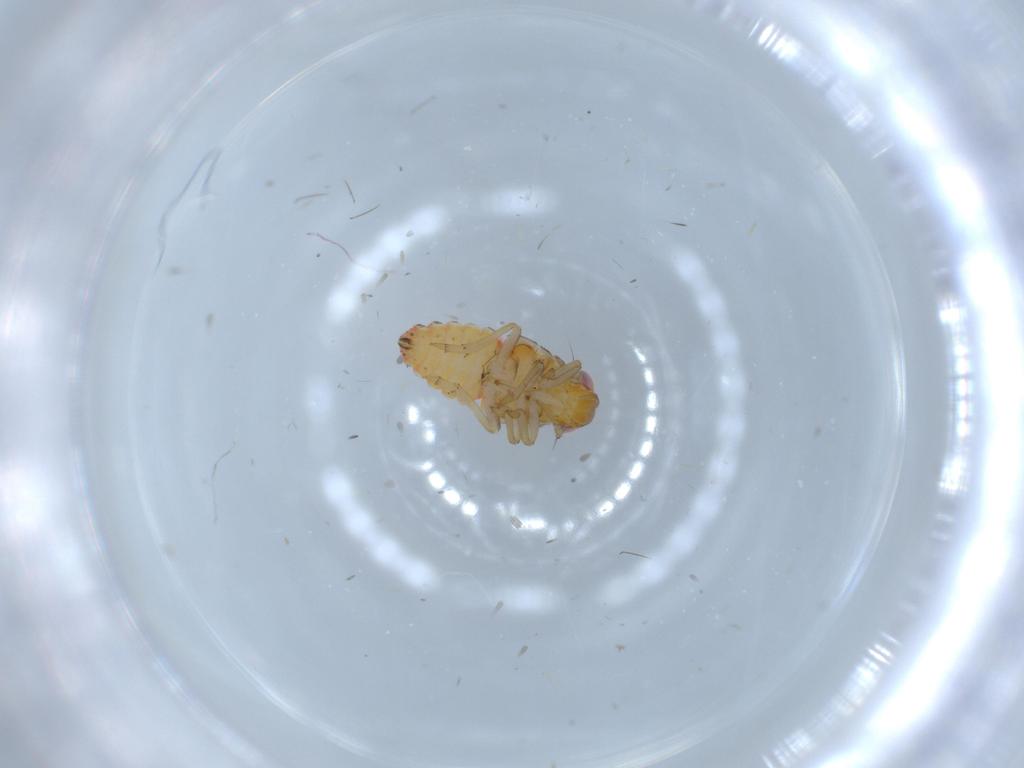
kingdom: Animalia
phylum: Arthropoda
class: Insecta
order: Hemiptera
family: Issidae
